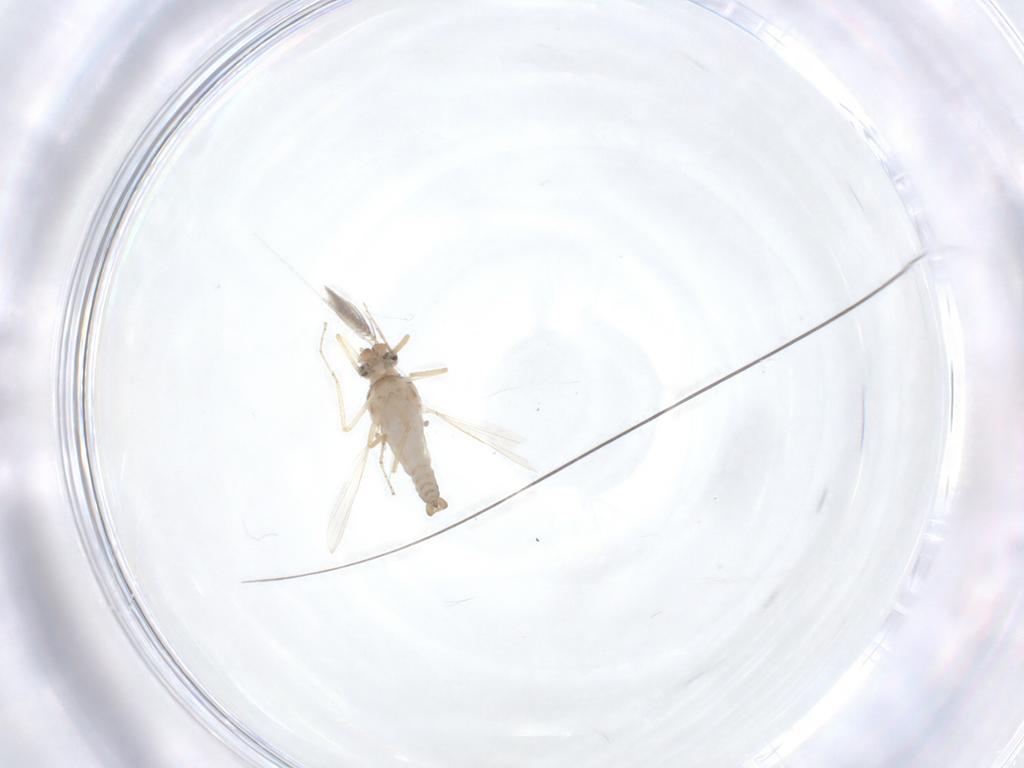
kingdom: Animalia
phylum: Arthropoda
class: Insecta
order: Diptera
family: Ceratopogonidae
